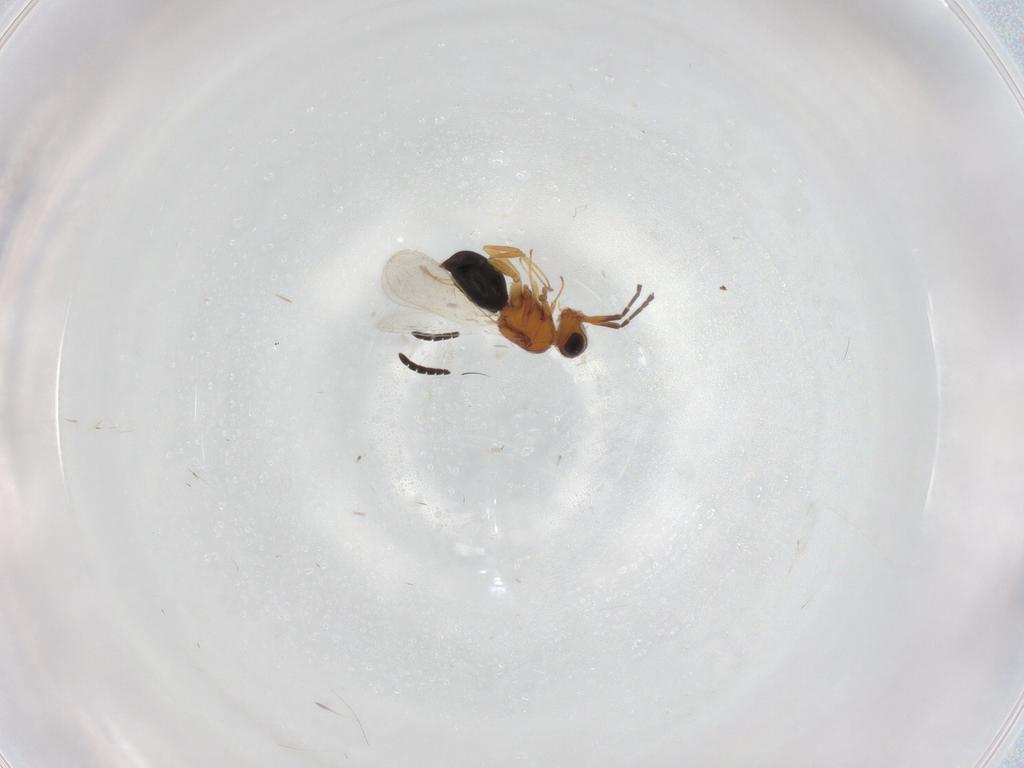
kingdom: Animalia
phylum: Arthropoda
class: Insecta
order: Hymenoptera
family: Ceraphronidae
